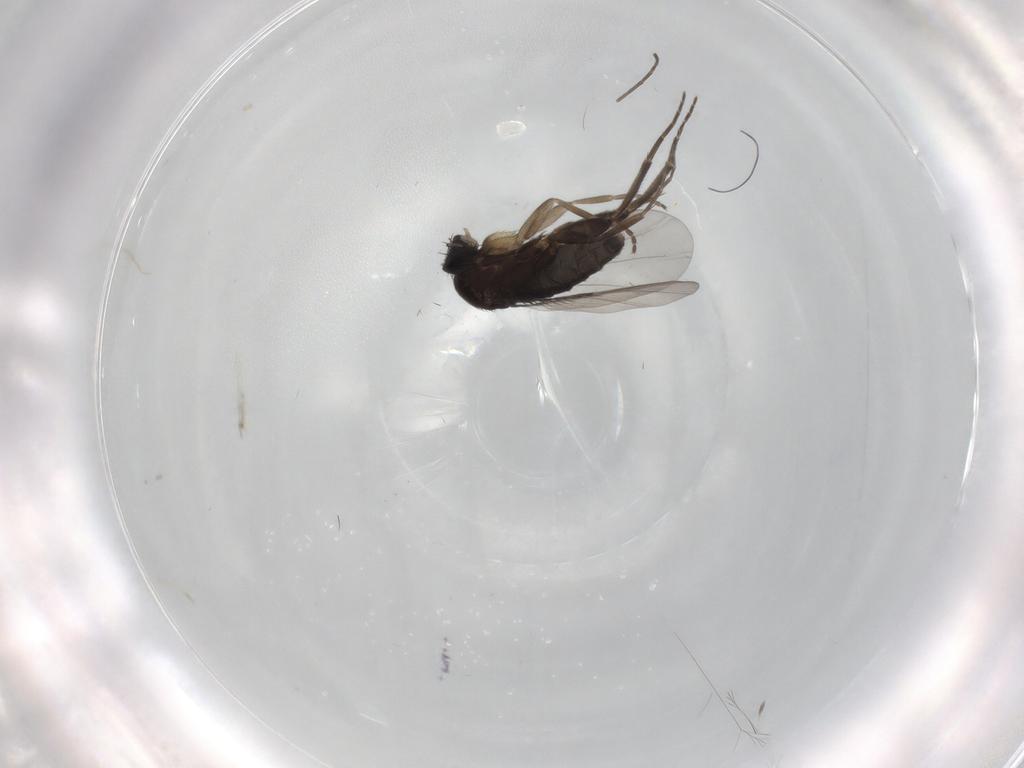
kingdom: Animalia
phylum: Arthropoda
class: Insecta
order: Diptera
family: Phoridae
